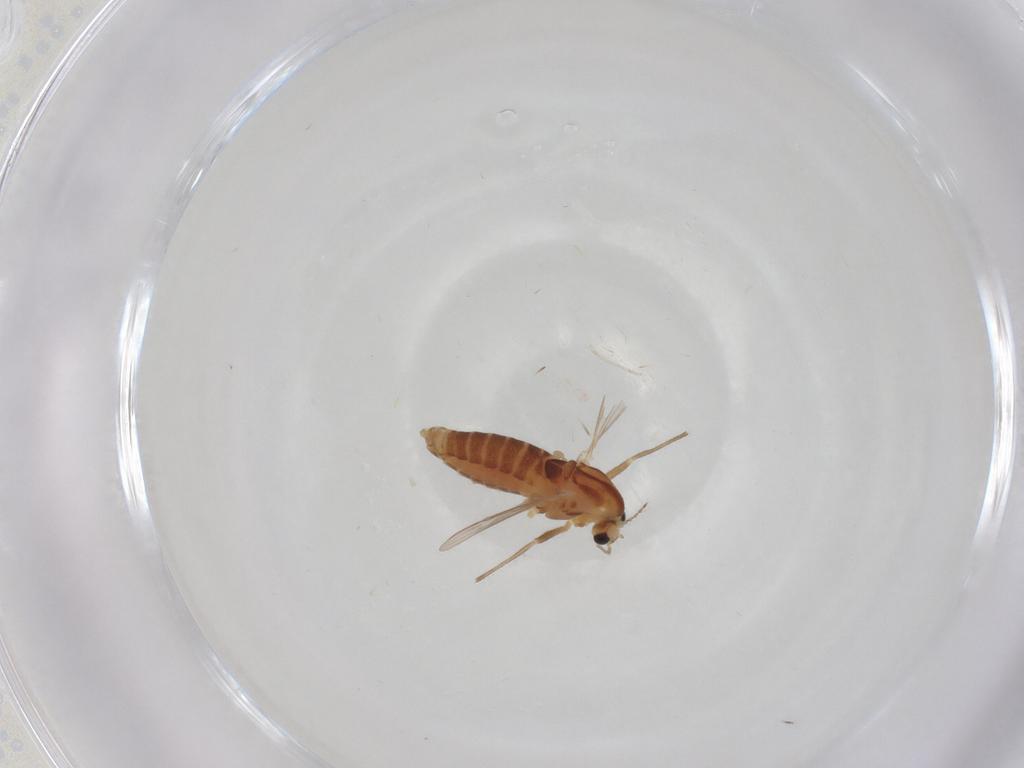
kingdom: Animalia
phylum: Arthropoda
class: Insecta
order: Diptera
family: Chironomidae
